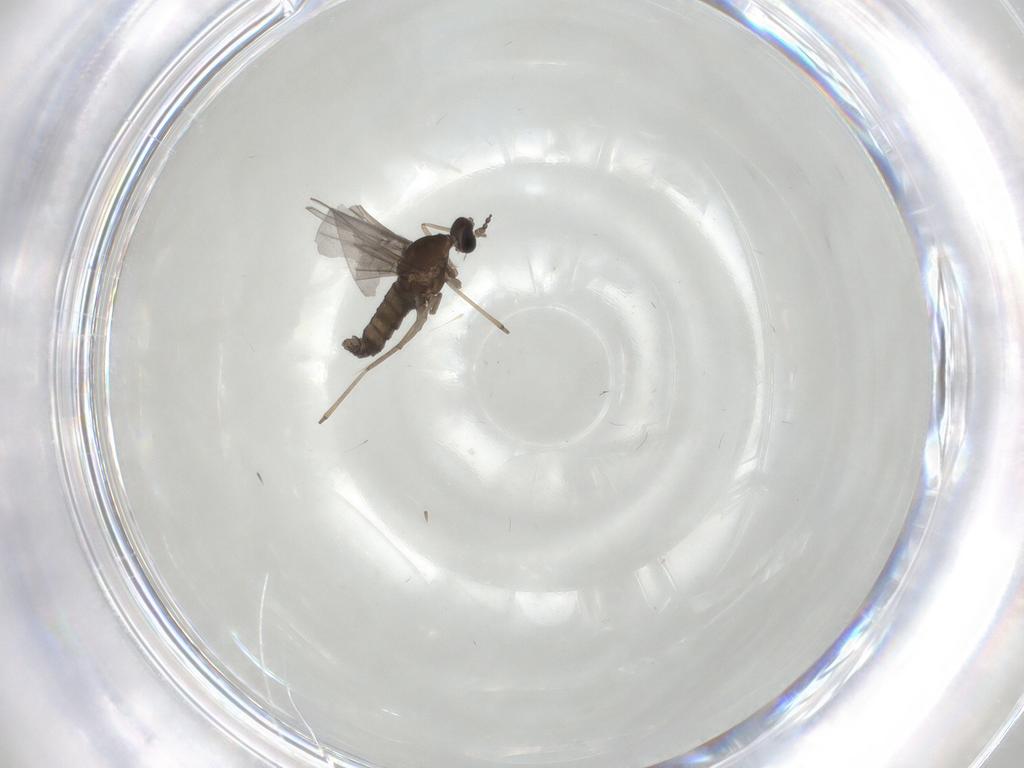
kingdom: Animalia
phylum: Arthropoda
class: Insecta
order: Diptera
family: Cecidomyiidae
